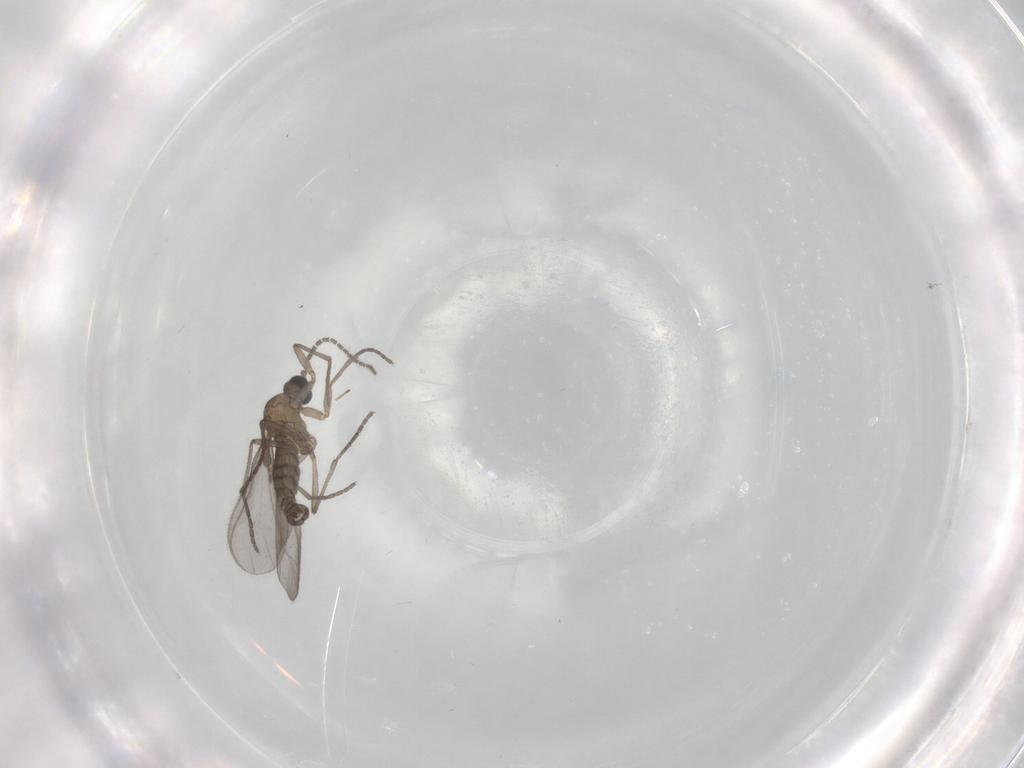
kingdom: Animalia
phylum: Arthropoda
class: Insecta
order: Diptera
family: Sciaridae
